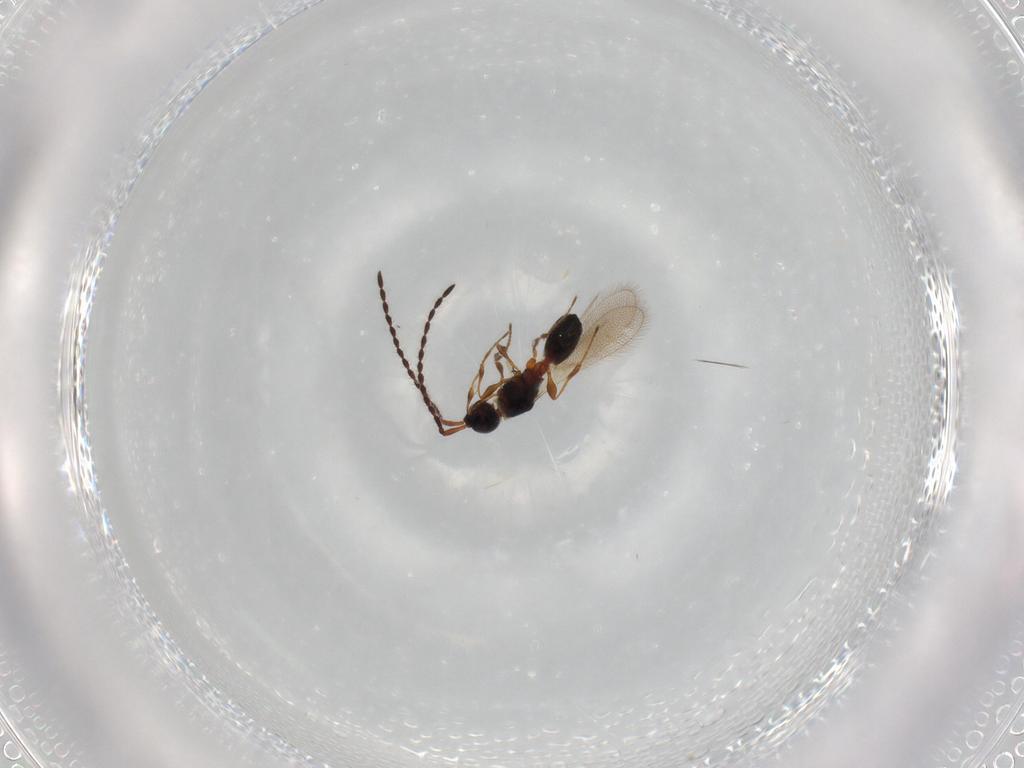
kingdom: Animalia
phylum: Arthropoda
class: Insecta
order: Hymenoptera
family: Diapriidae
